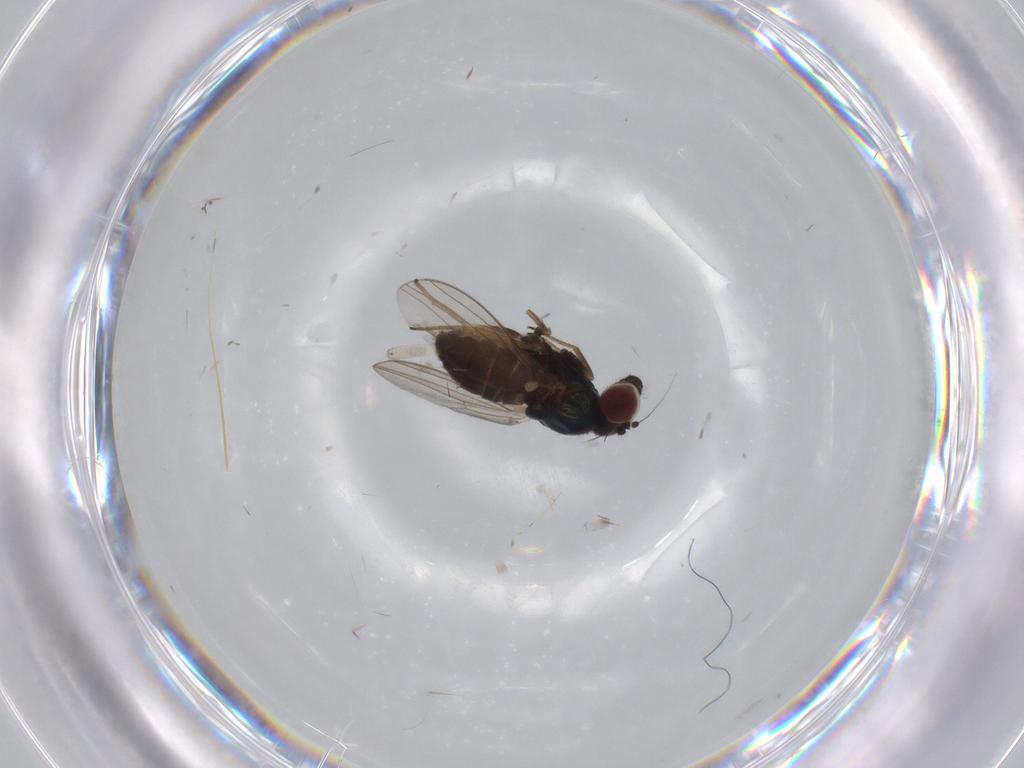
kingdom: Animalia
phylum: Arthropoda
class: Insecta
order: Diptera
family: Dolichopodidae
